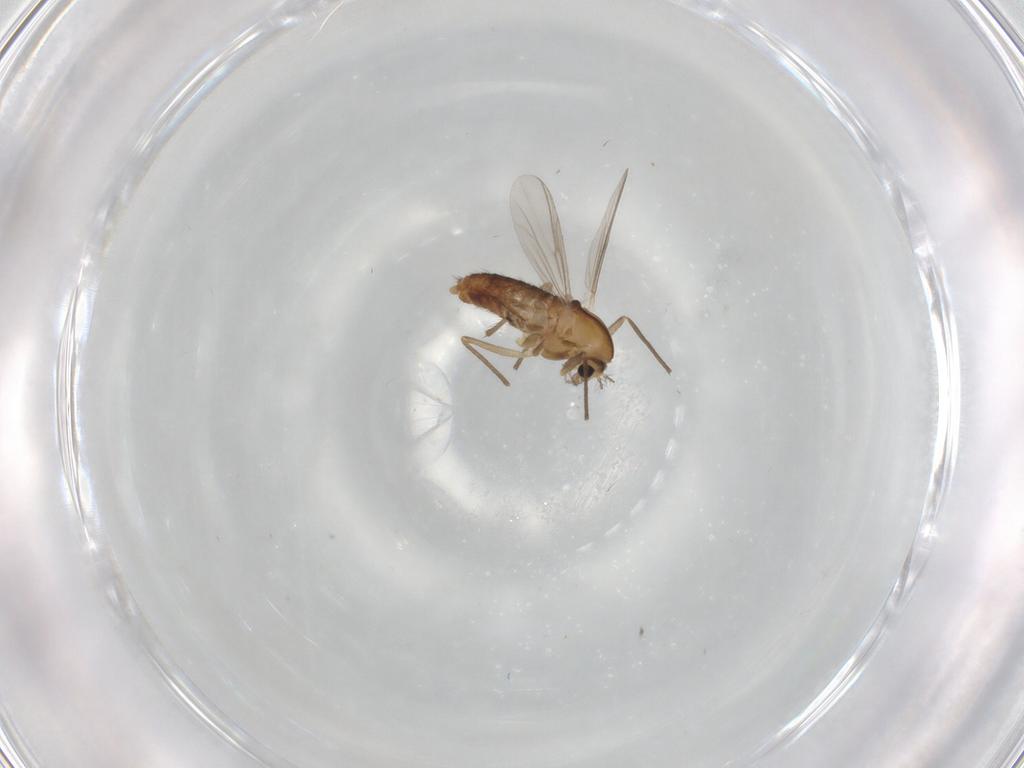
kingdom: Animalia
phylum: Arthropoda
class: Insecta
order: Diptera
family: Chironomidae
